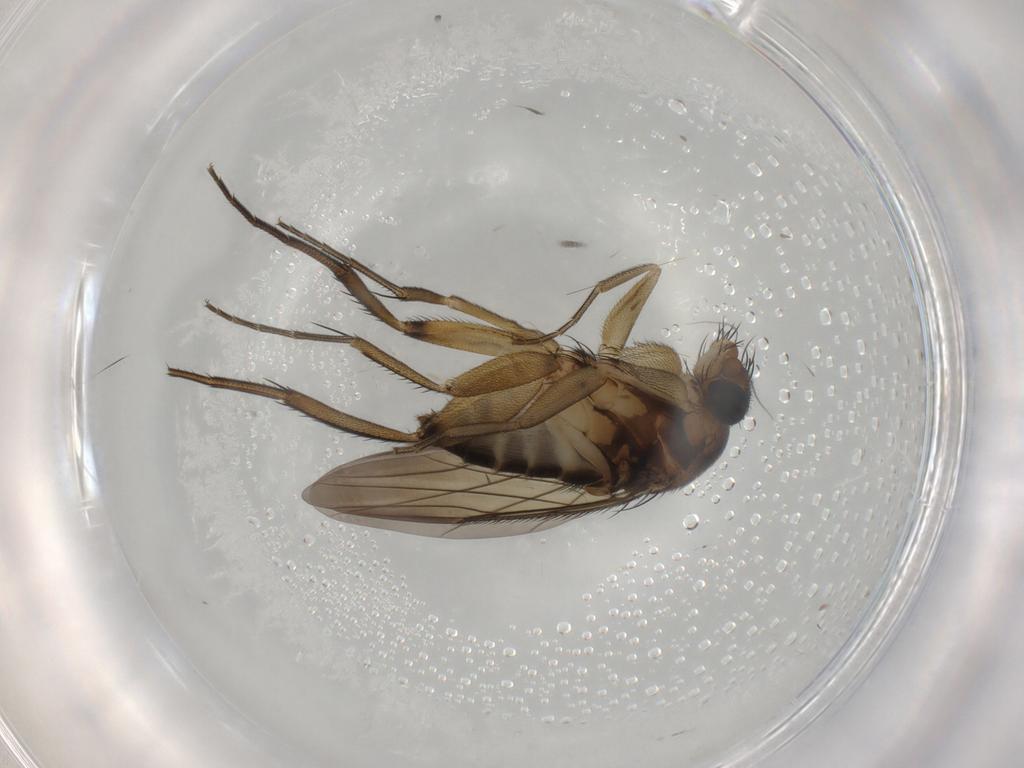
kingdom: Animalia
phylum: Arthropoda
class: Insecta
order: Diptera
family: Phoridae
